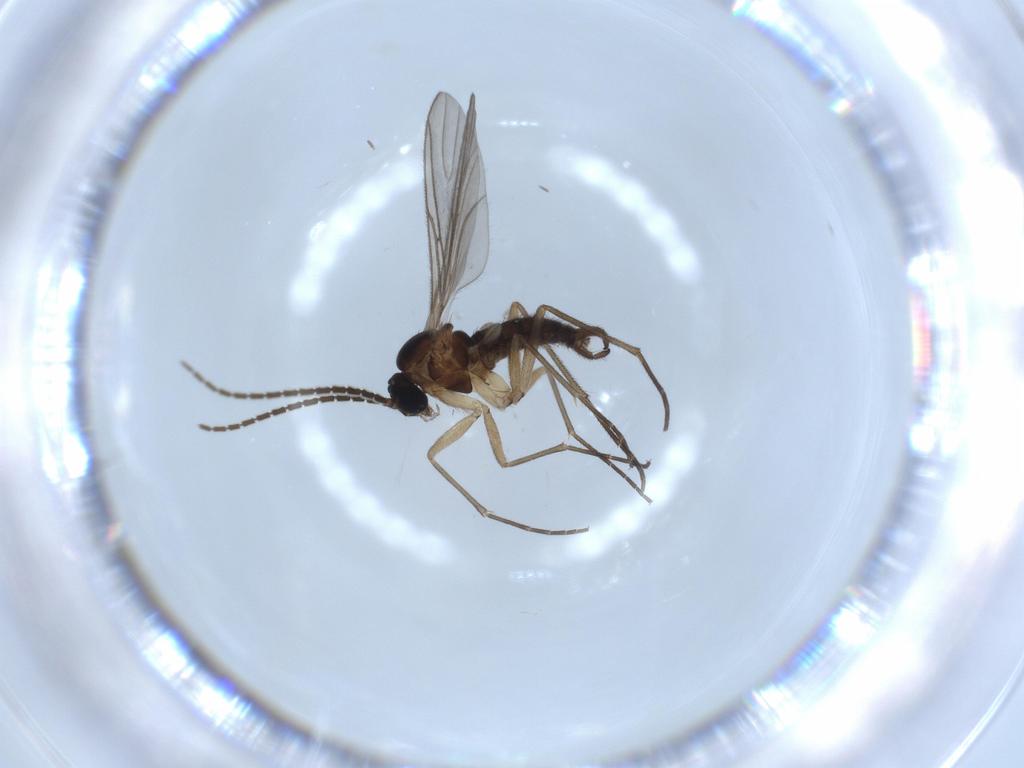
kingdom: Animalia
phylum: Arthropoda
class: Insecta
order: Diptera
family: Sciaridae
